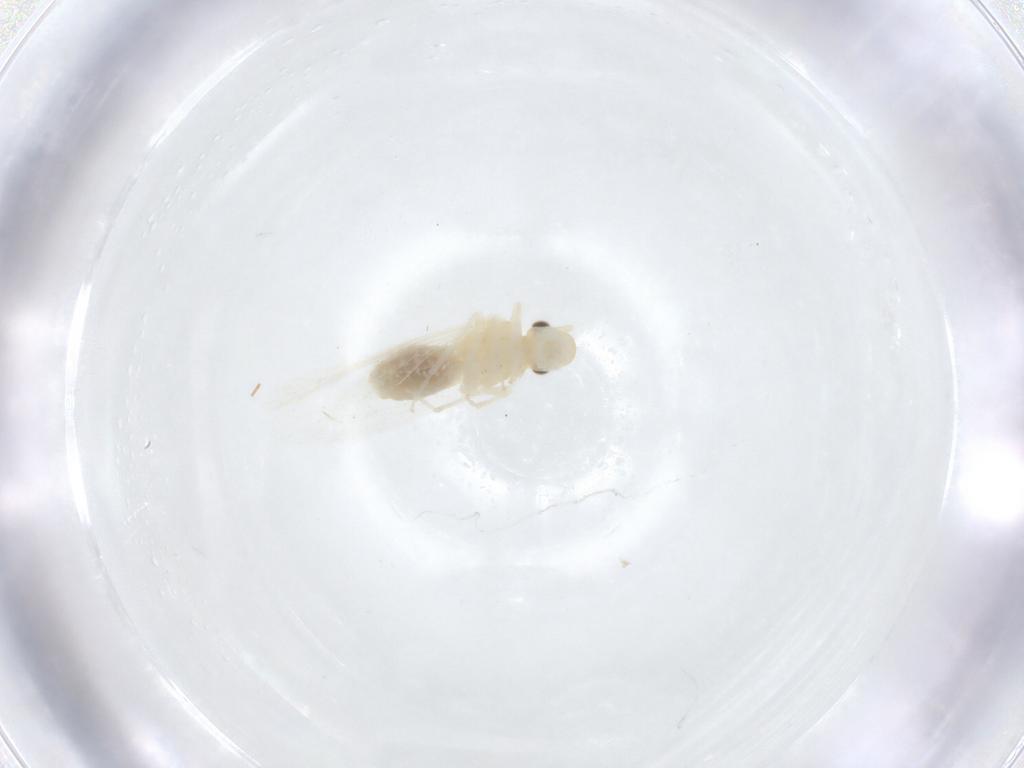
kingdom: Animalia
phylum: Arthropoda
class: Insecta
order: Psocodea
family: Caeciliusidae
